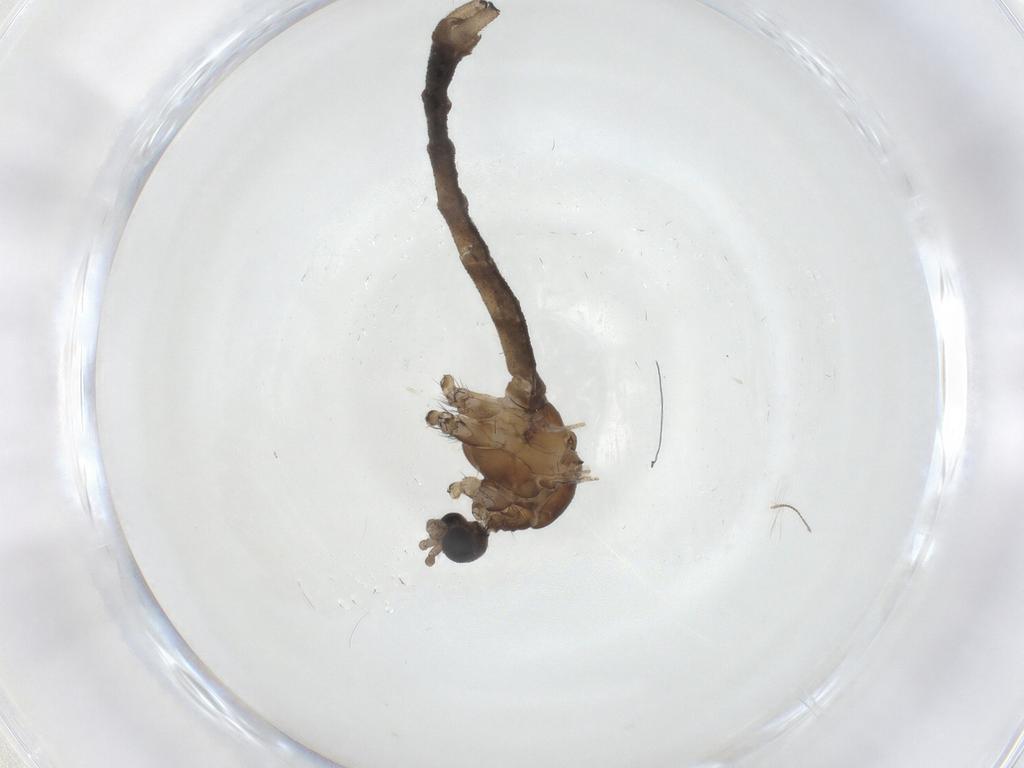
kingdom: Animalia
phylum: Arthropoda
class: Insecta
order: Diptera
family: Limoniidae
